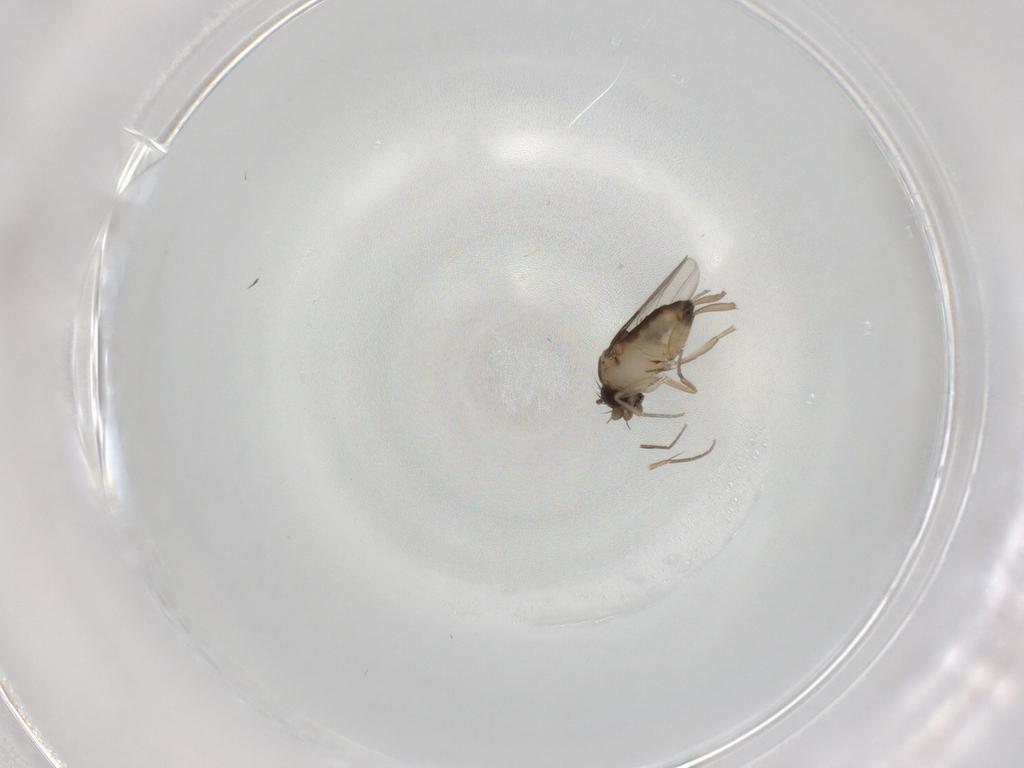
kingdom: Animalia
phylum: Arthropoda
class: Insecta
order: Diptera
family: Phoridae
